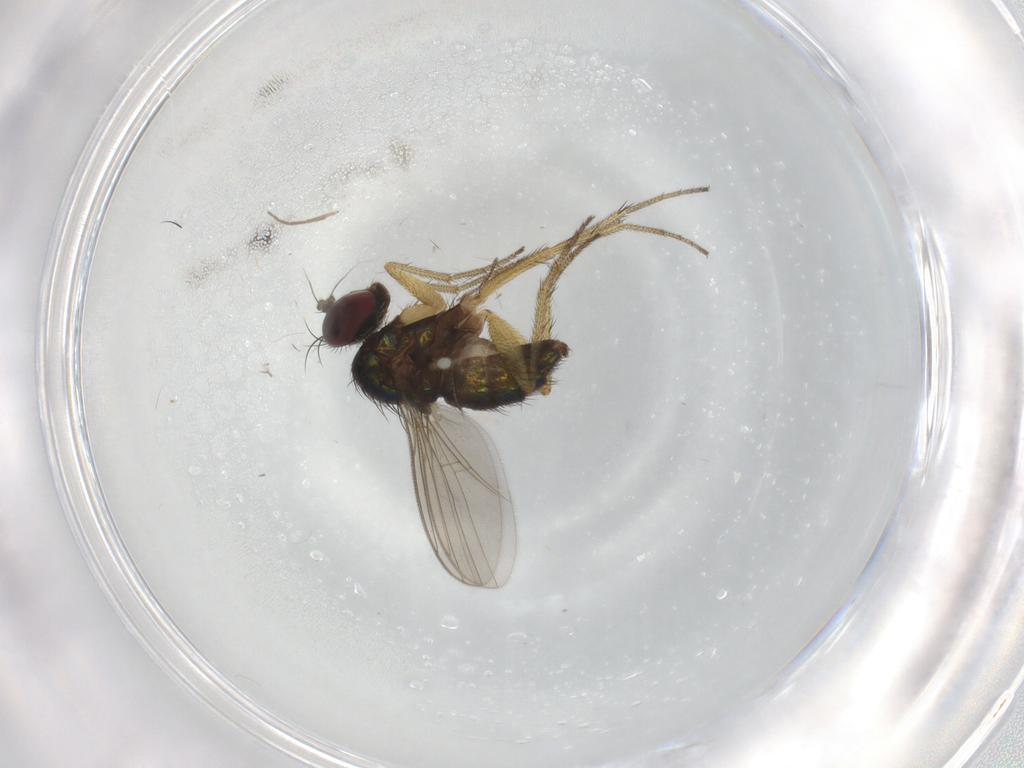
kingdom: Animalia
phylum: Arthropoda
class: Insecta
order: Diptera
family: Chironomidae
